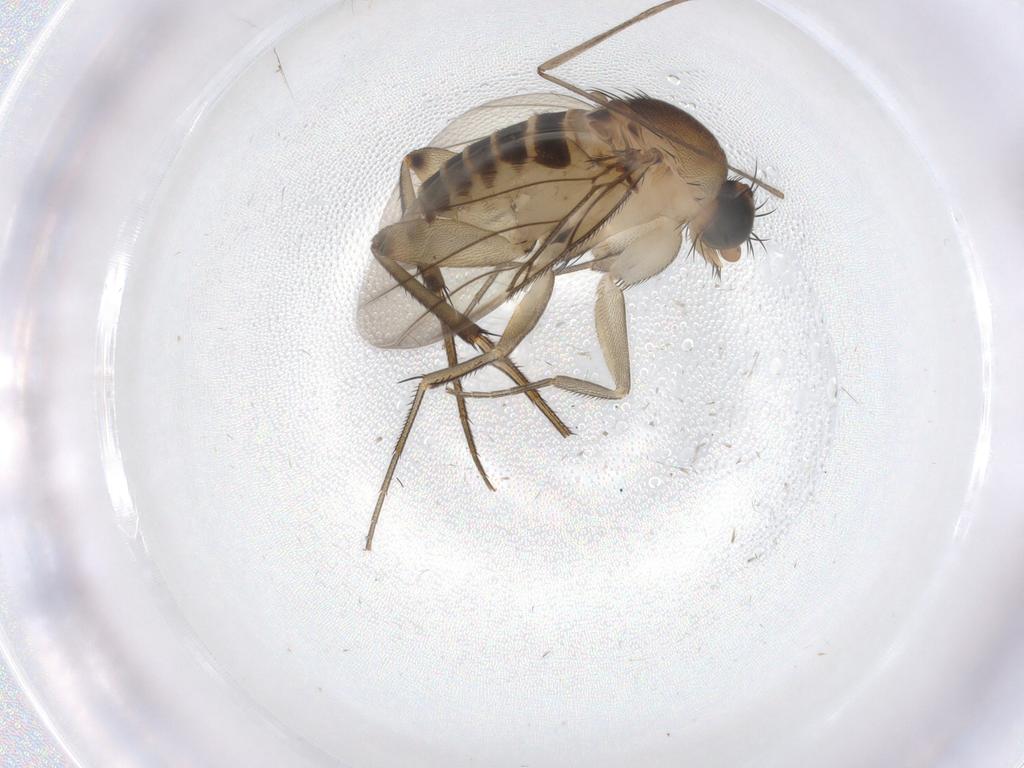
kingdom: Animalia
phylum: Arthropoda
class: Insecta
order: Diptera
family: Phoridae
